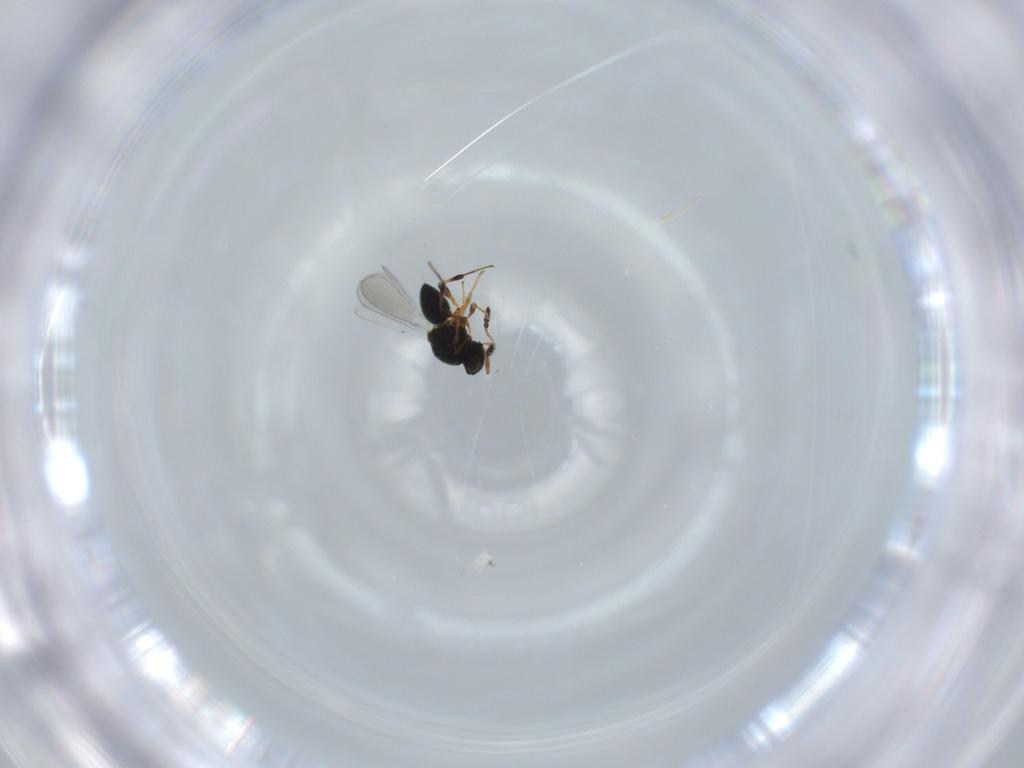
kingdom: Animalia
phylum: Arthropoda
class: Insecta
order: Hymenoptera
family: Platygastridae
